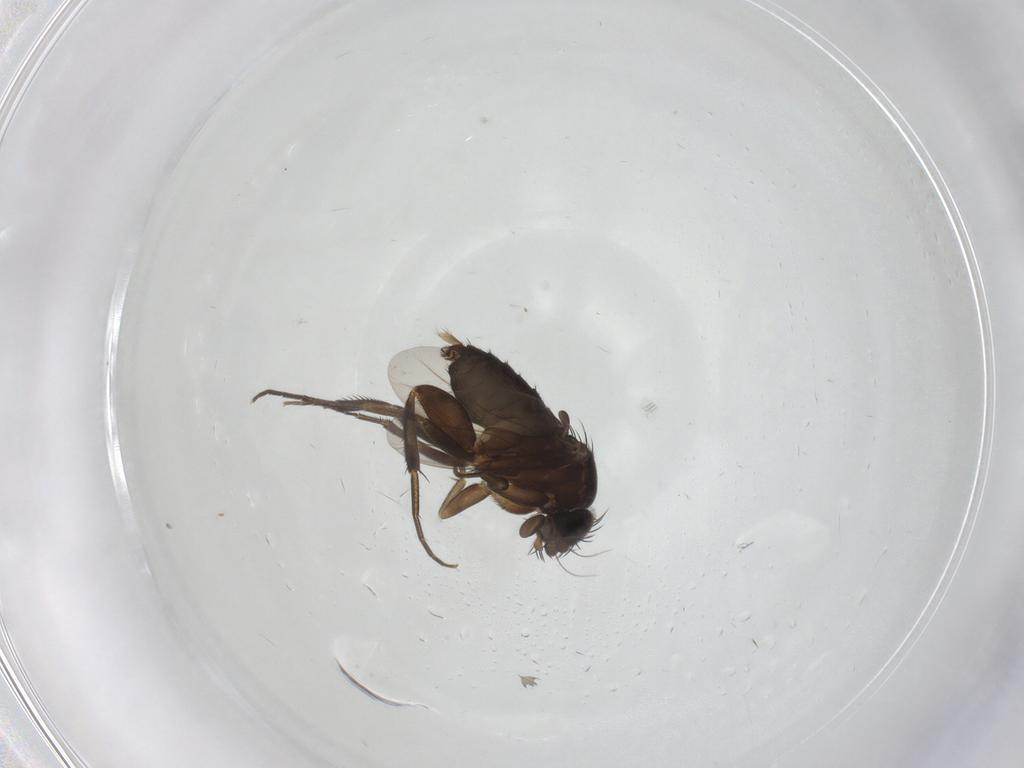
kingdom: Animalia
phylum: Arthropoda
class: Insecta
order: Diptera
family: Phoridae
